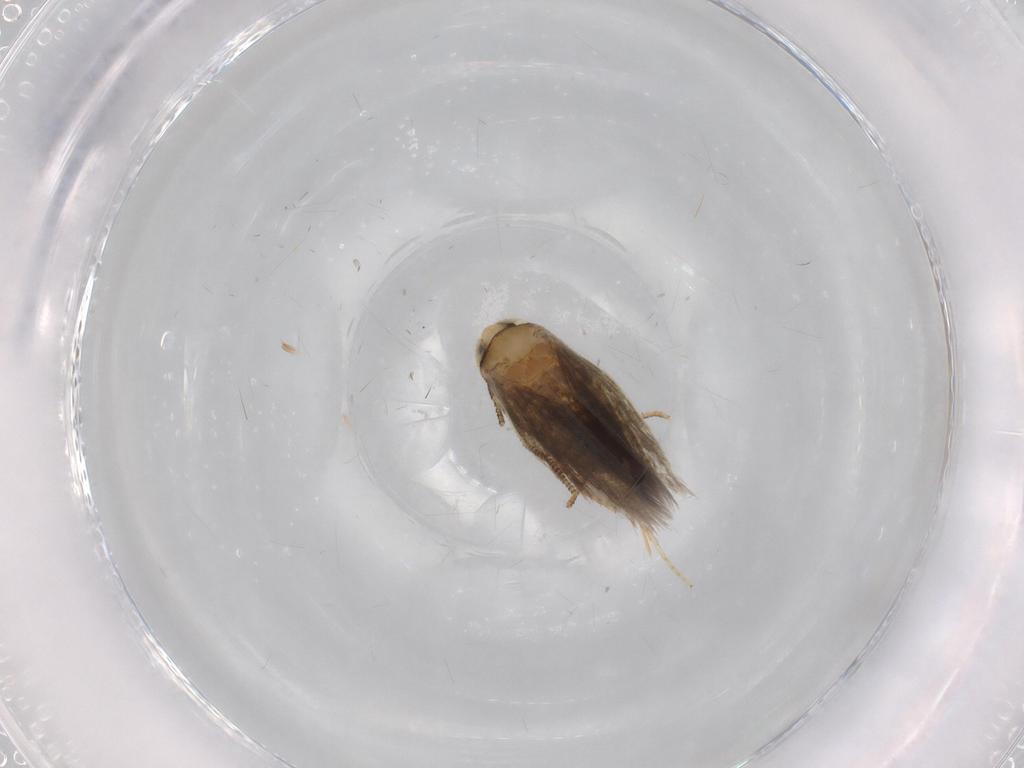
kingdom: Animalia
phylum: Arthropoda
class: Insecta
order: Lepidoptera
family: Nepticulidae
